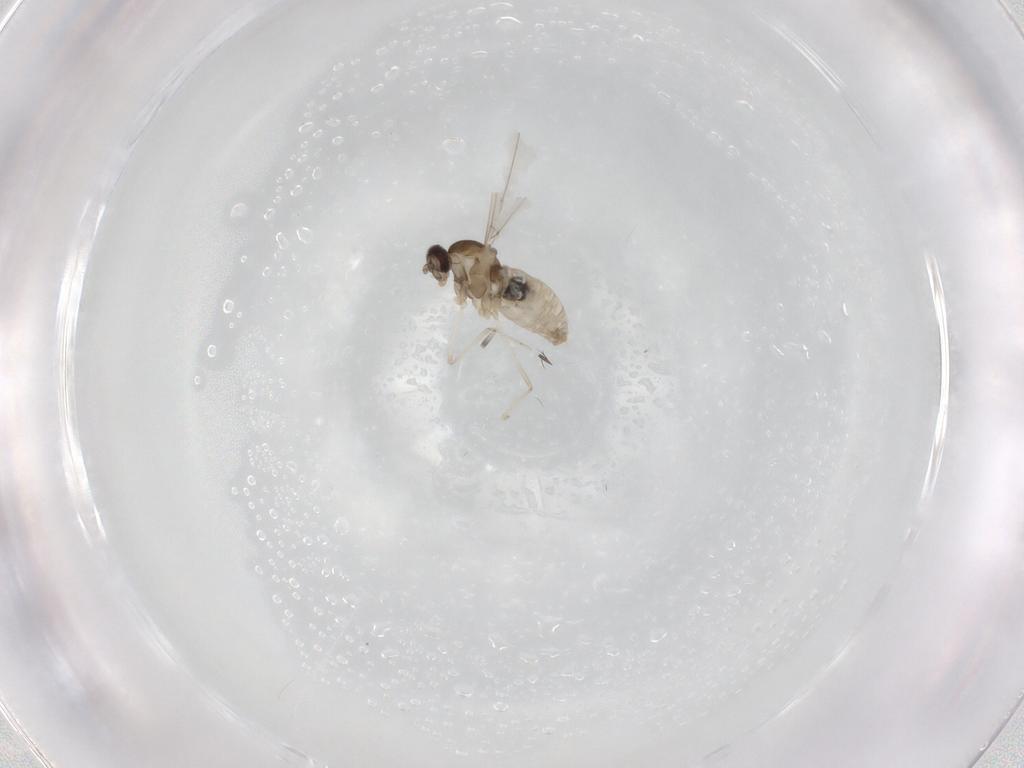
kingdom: Animalia
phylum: Arthropoda
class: Insecta
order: Diptera
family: Cecidomyiidae
